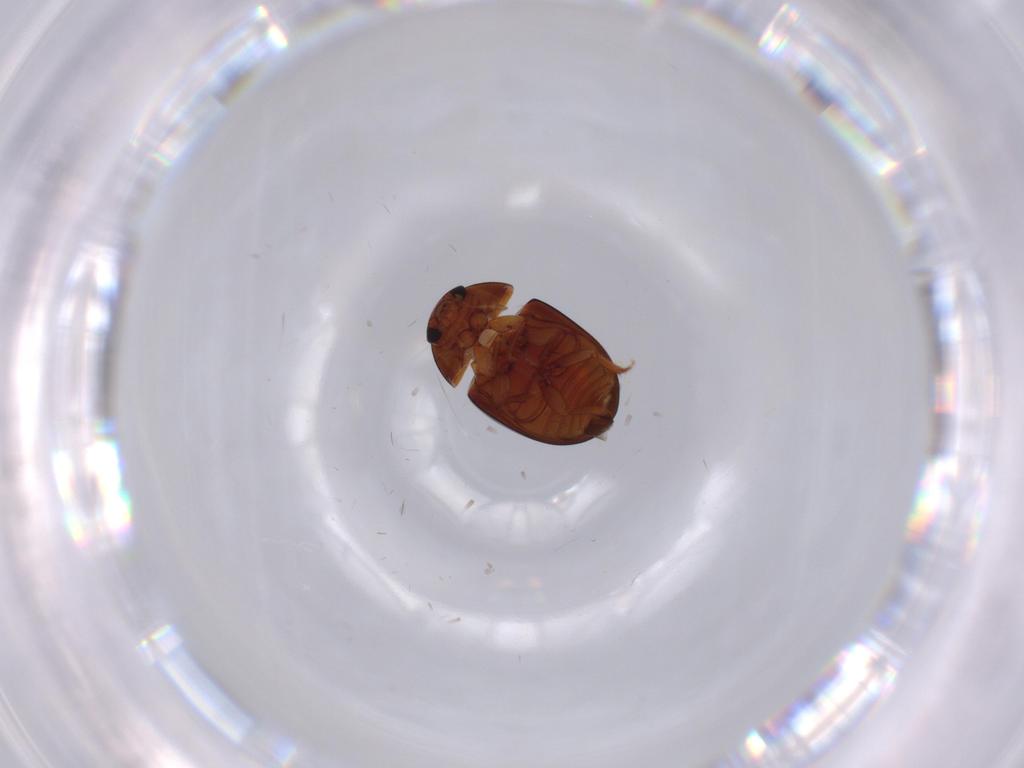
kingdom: Animalia
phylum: Arthropoda
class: Insecta
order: Coleoptera
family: Phalacridae
